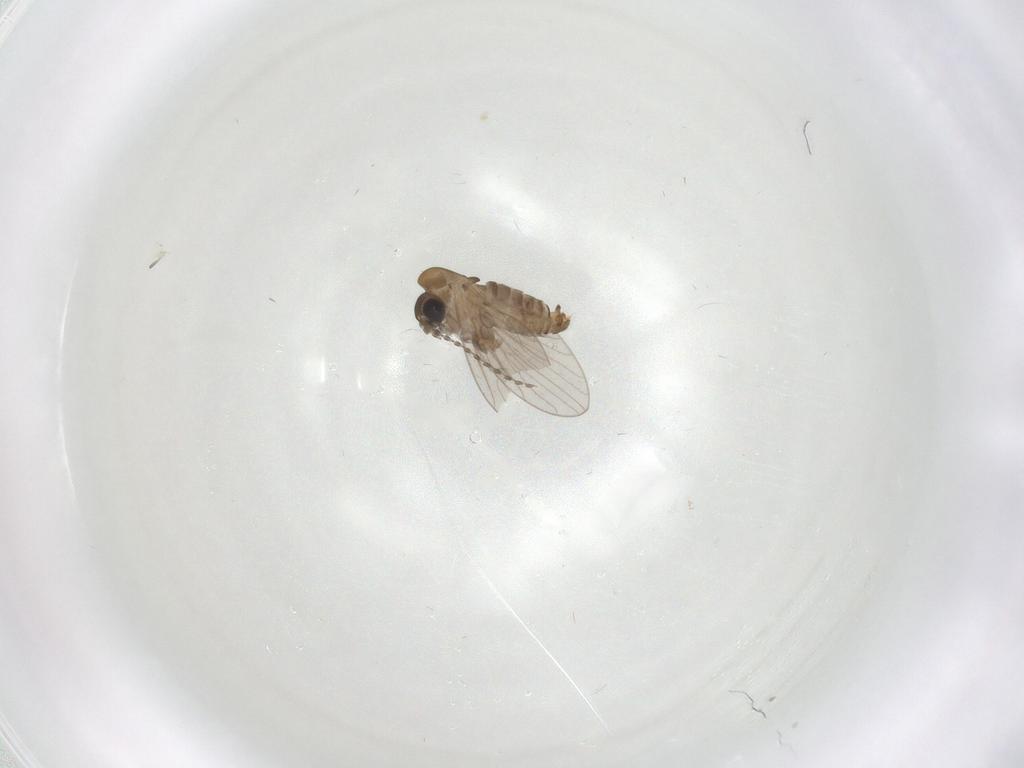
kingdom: Animalia
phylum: Arthropoda
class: Insecta
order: Diptera
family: Psychodidae
